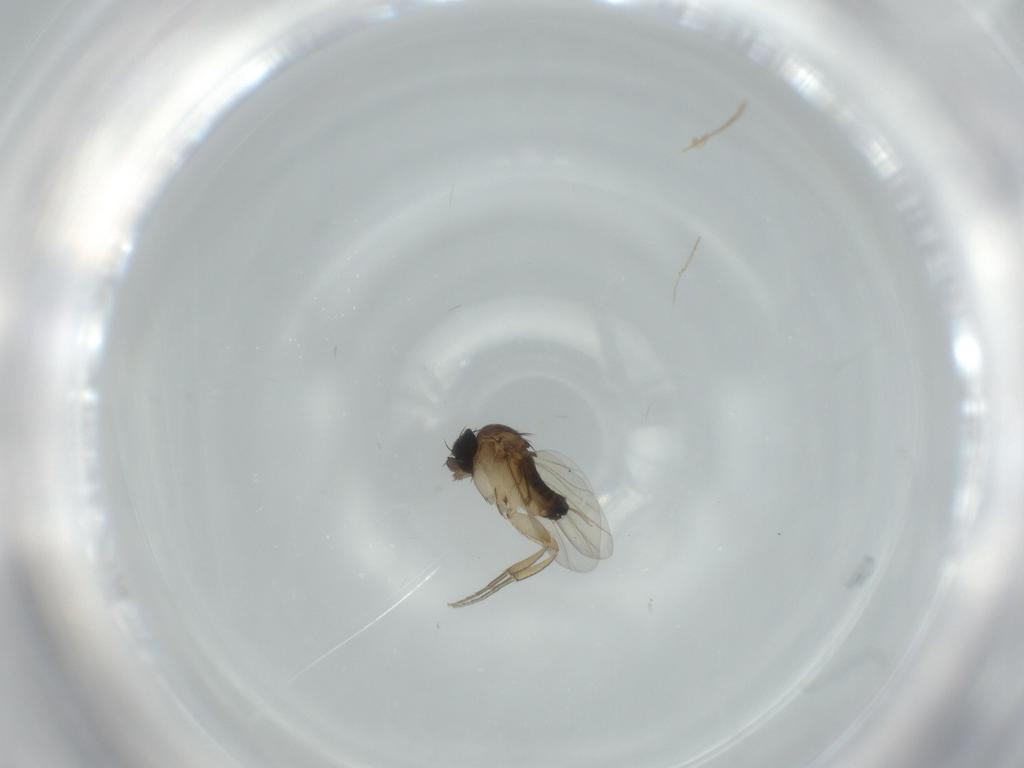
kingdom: Animalia
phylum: Arthropoda
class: Insecta
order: Diptera
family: Phoridae
